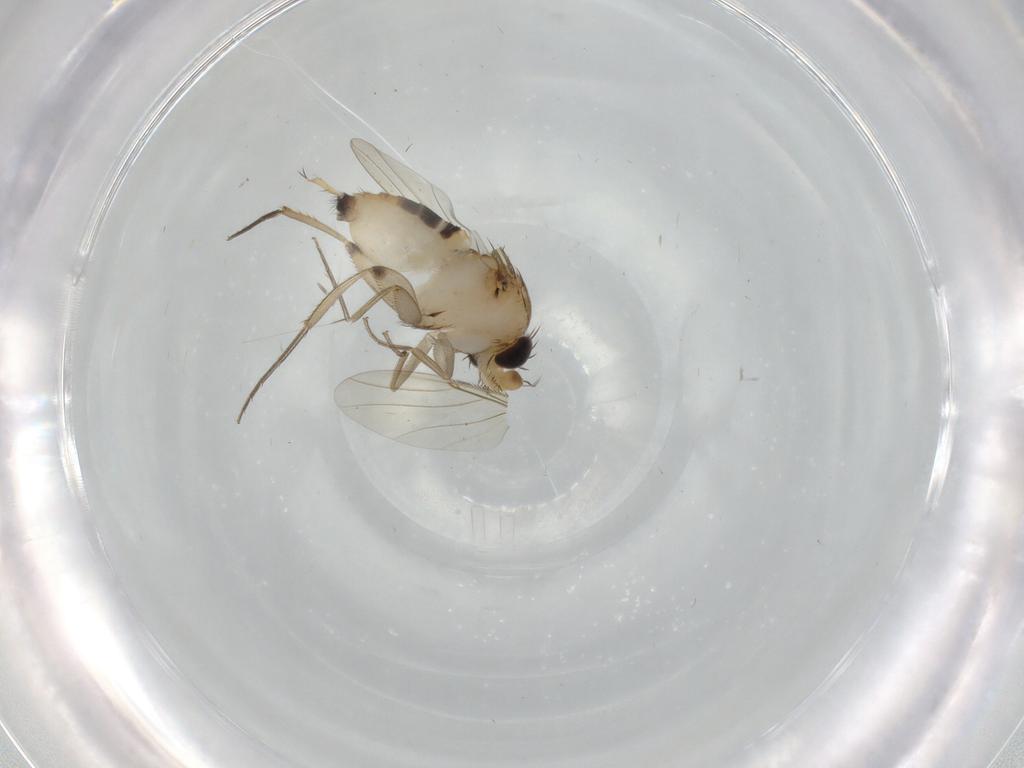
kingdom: Animalia
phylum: Arthropoda
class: Insecta
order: Diptera
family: Phoridae
